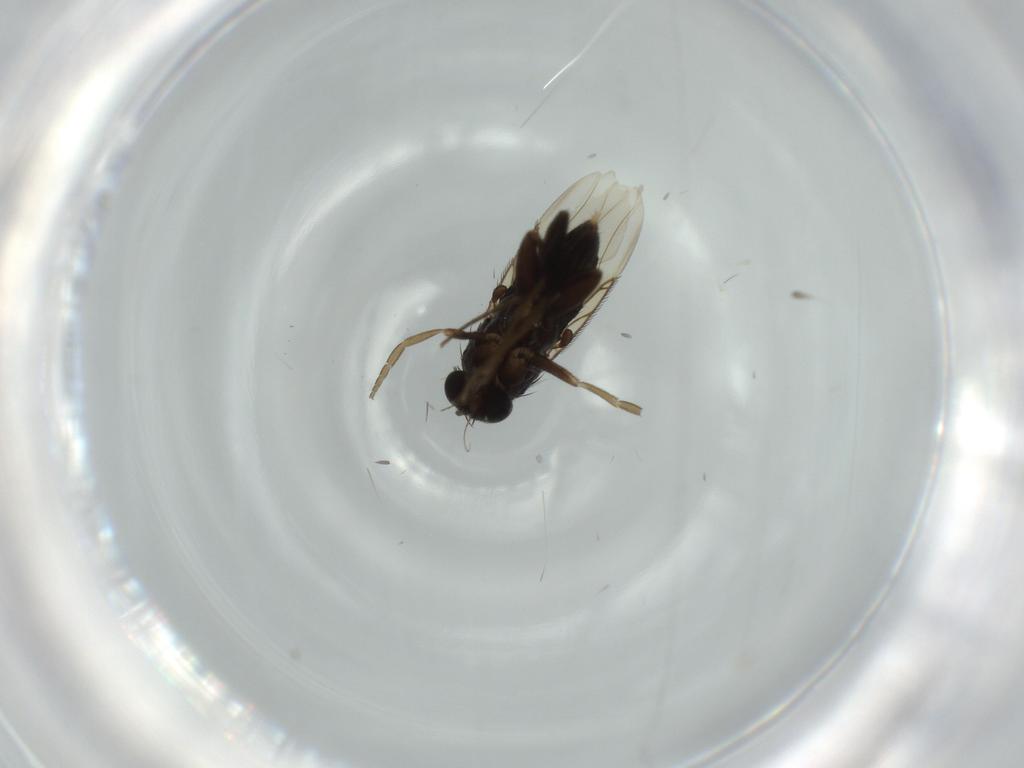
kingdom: Animalia
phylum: Arthropoda
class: Insecta
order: Diptera
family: Phoridae
